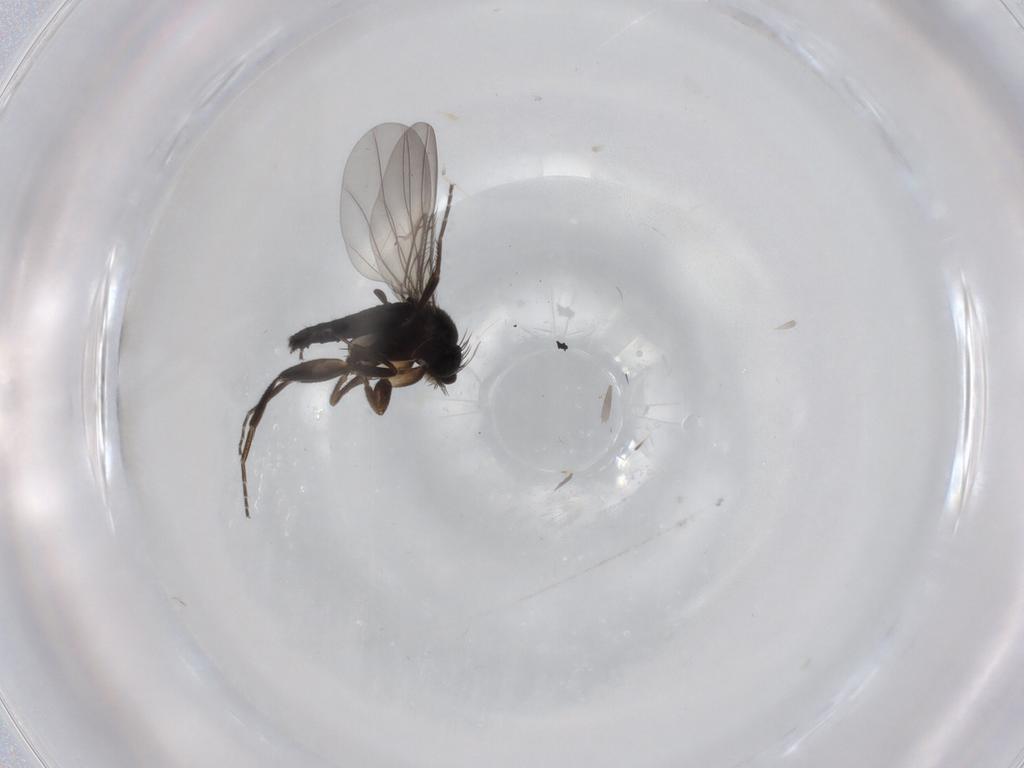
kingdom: Animalia
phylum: Arthropoda
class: Insecta
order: Diptera
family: Phoridae
